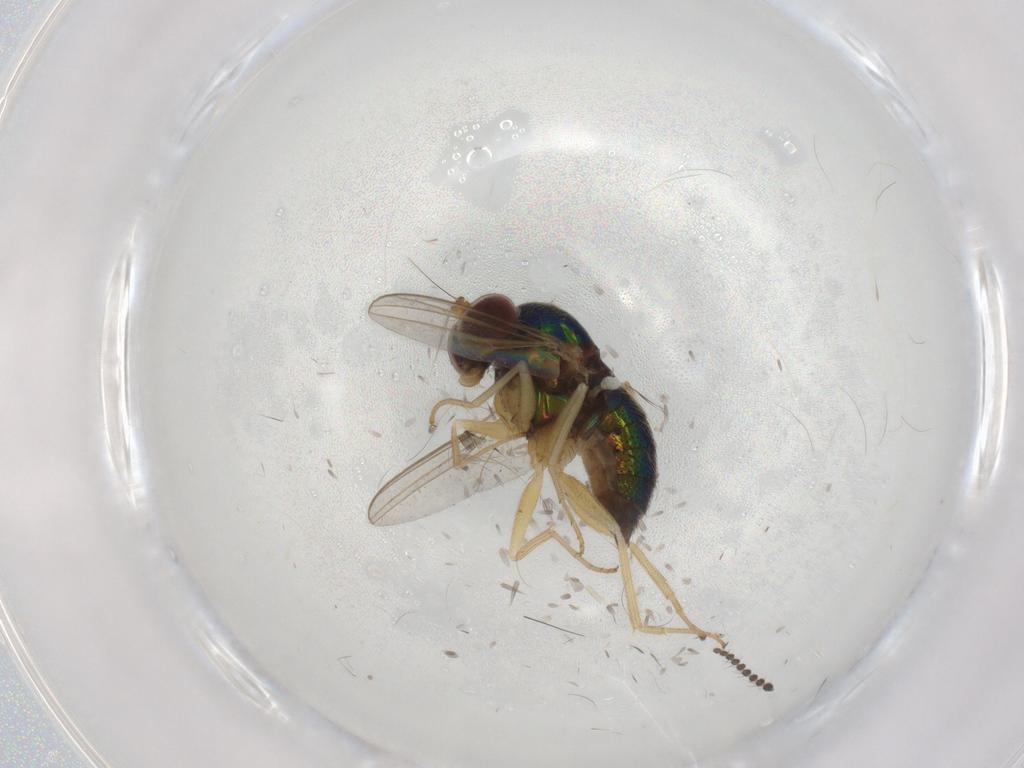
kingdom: Animalia
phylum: Arthropoda
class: Insecta
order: Diptera
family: Dolichopodidae
